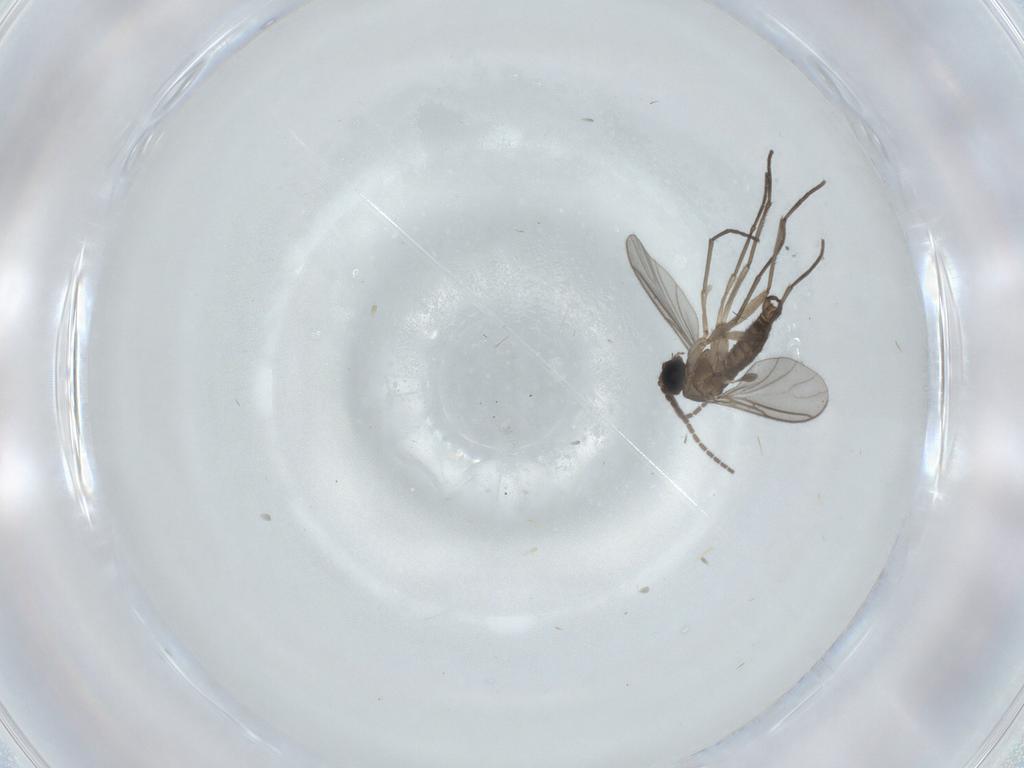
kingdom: Animalia
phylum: Arthropoda
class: Insecta
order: Diptera
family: Sciaridae
